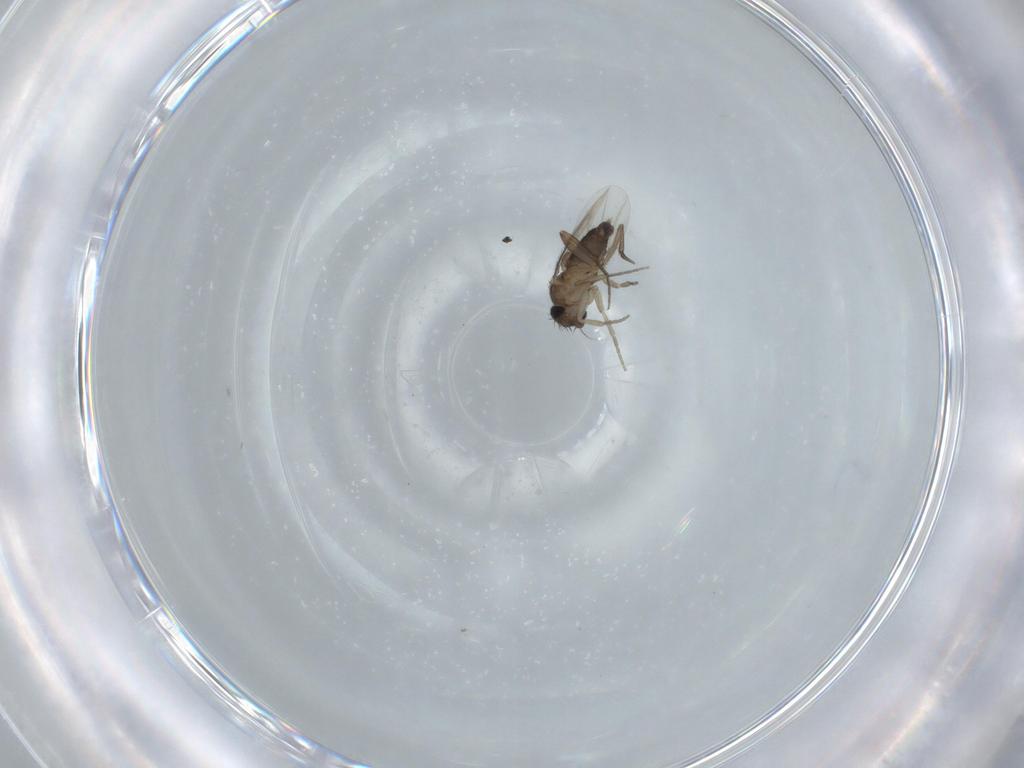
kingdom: Animalia
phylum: Arthropoda
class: Insecta
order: Diptera
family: Phoridae
